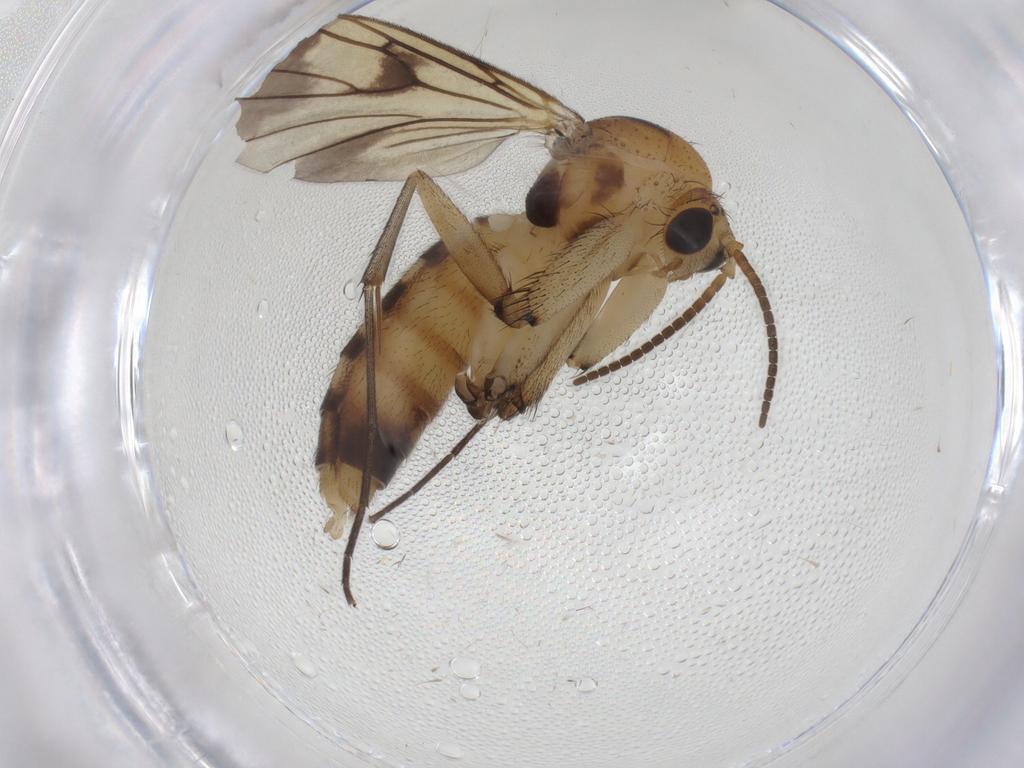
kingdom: Animalia
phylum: Arthropoda
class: Insecta
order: Diptera
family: Mycetophilidae
